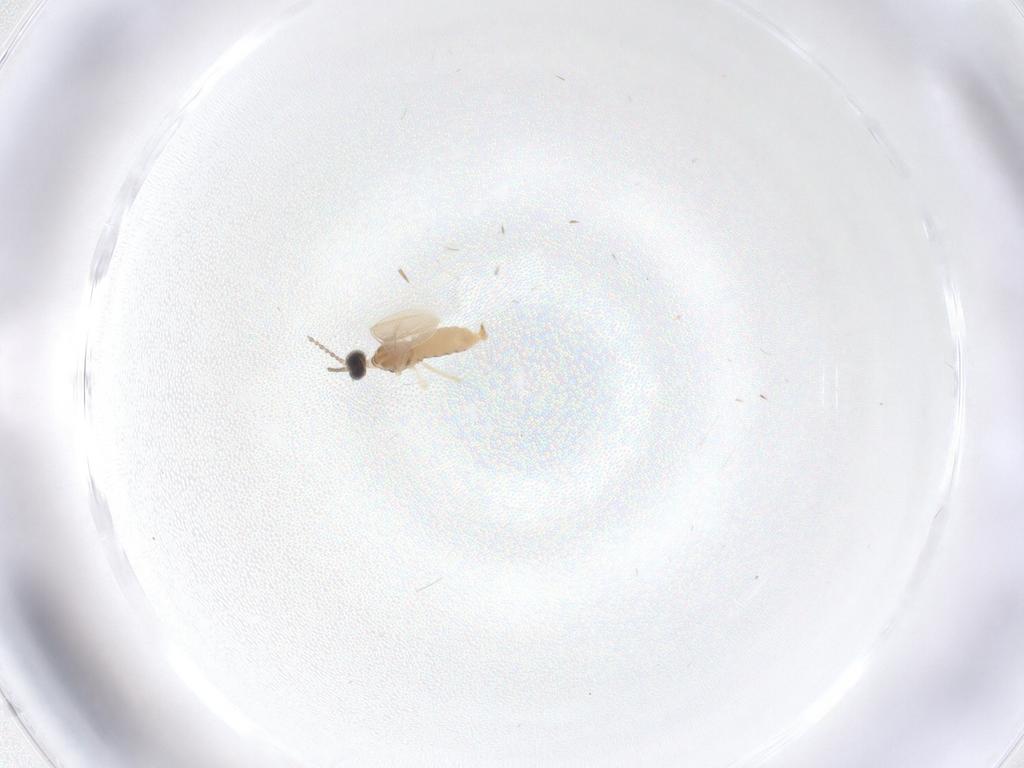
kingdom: Animalia
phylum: Arthropoda
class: Insecta
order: Diptera
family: Cecidomyiidae
